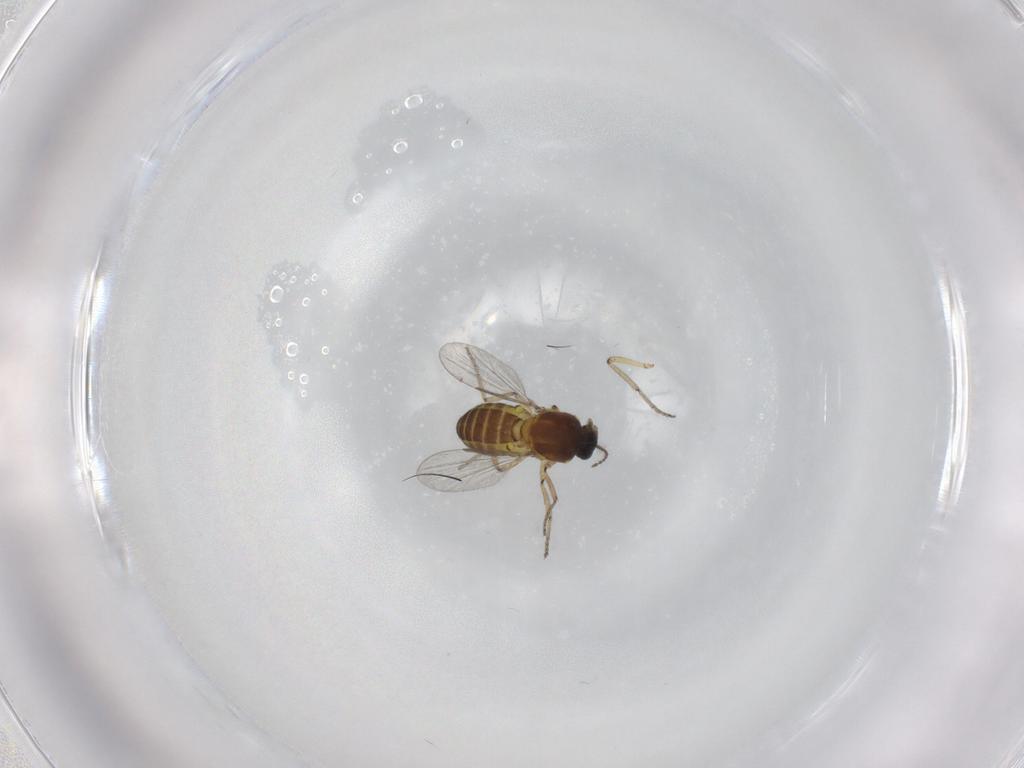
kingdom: Animalia
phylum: Arthropoda
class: Insecta
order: Diptera
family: Ceratopogonidae
